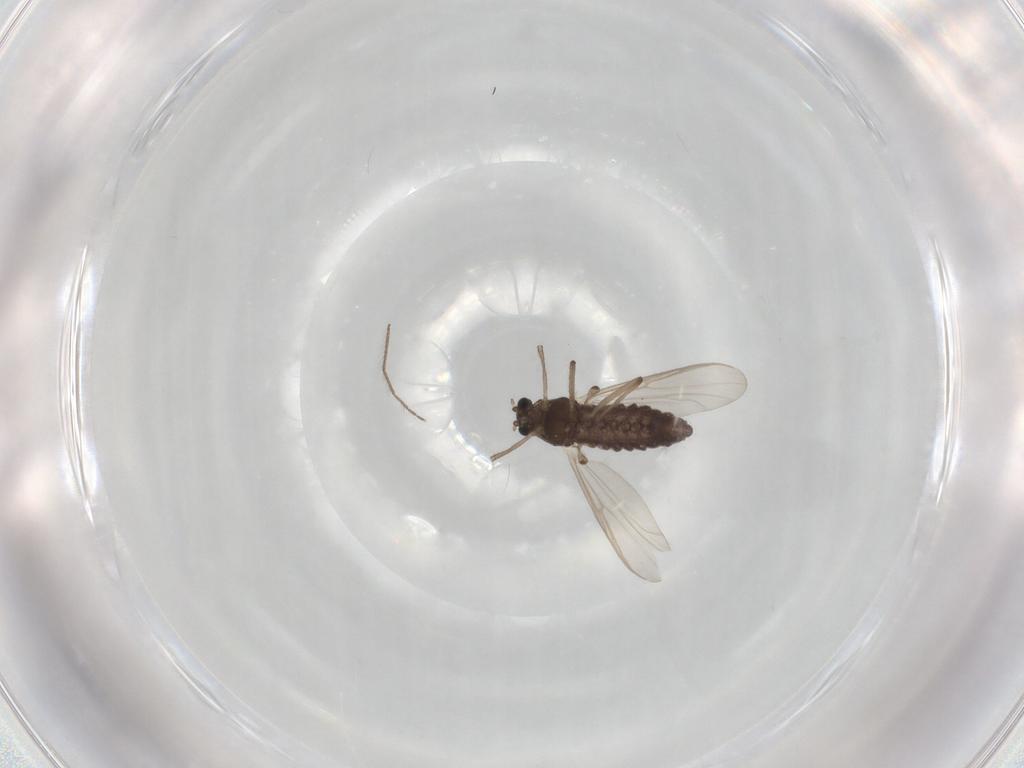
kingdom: Animalia
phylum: Arthropoda
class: Insecta
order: Diptera
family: Chironomidae
